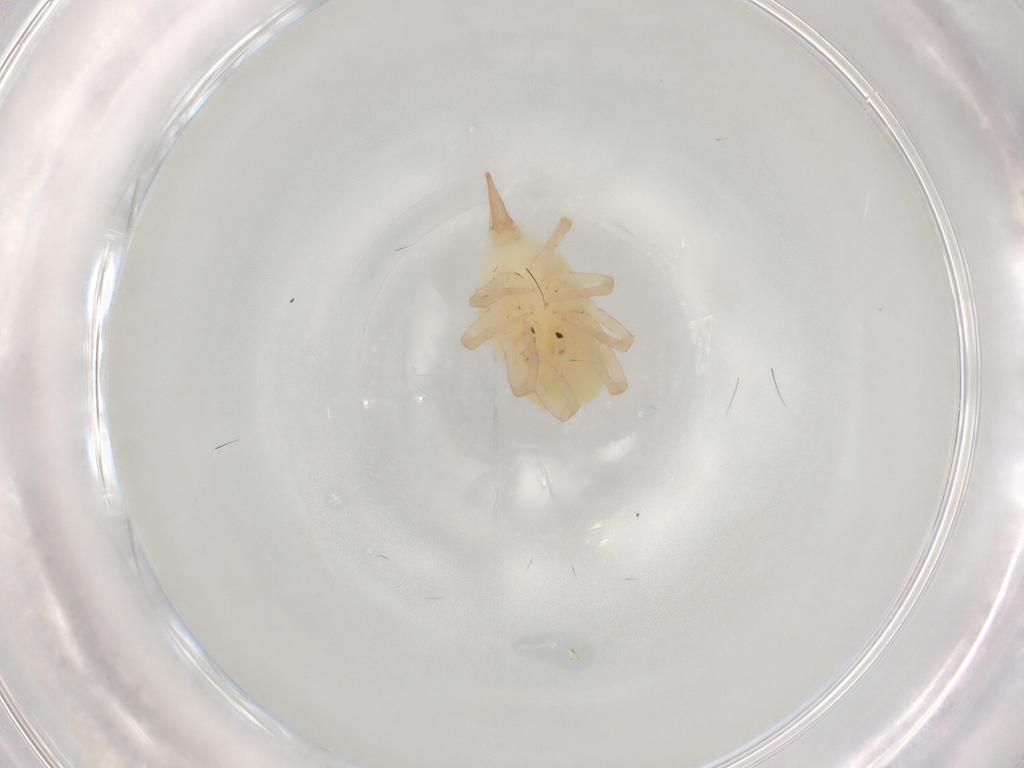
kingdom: Animalia
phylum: Arthropoda
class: Arachnida
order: Trombidiformes
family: Bdellidae
